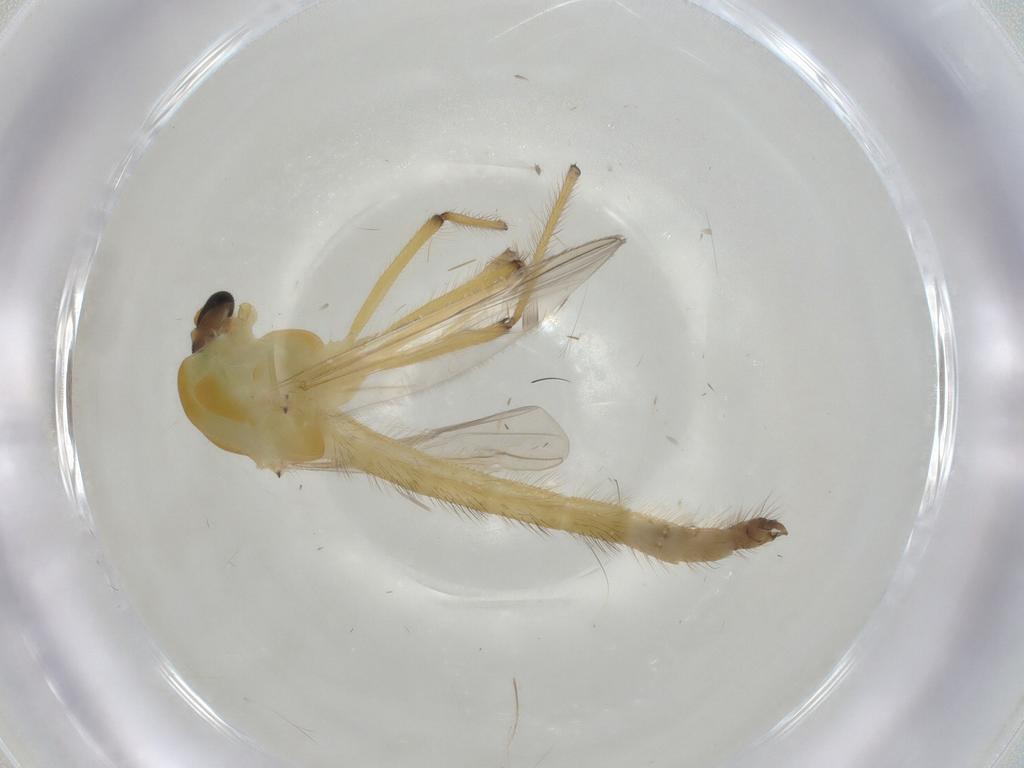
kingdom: Animalia
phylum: Arthropoda
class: Insecta
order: Diptera
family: Chironomidae
